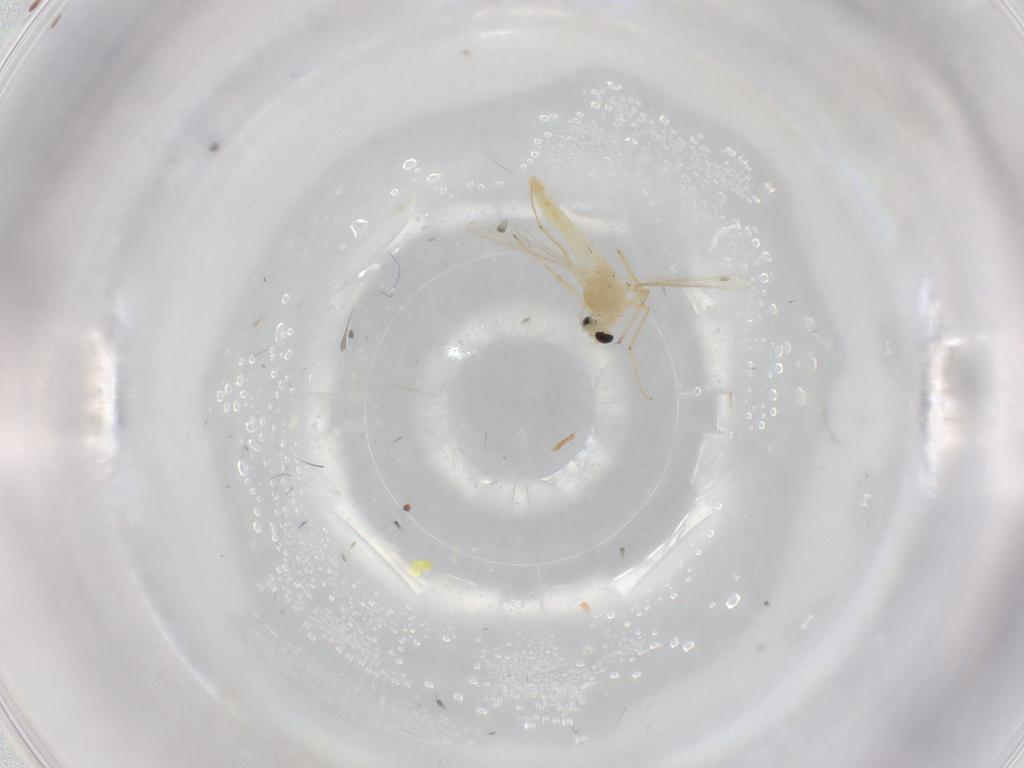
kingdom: Animalia
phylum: Arthropoda
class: Insecta
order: Diptera
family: Chironomidae
